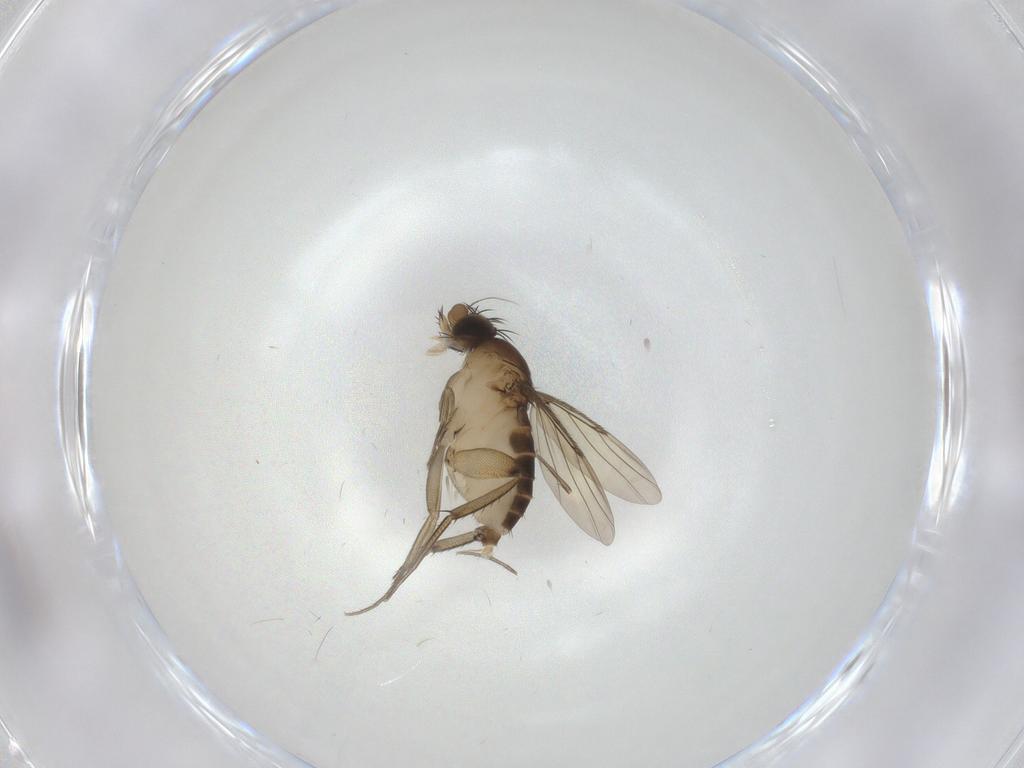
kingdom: Animalia
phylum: Arthropoda
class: Insecta
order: Diptera
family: Phoridae
